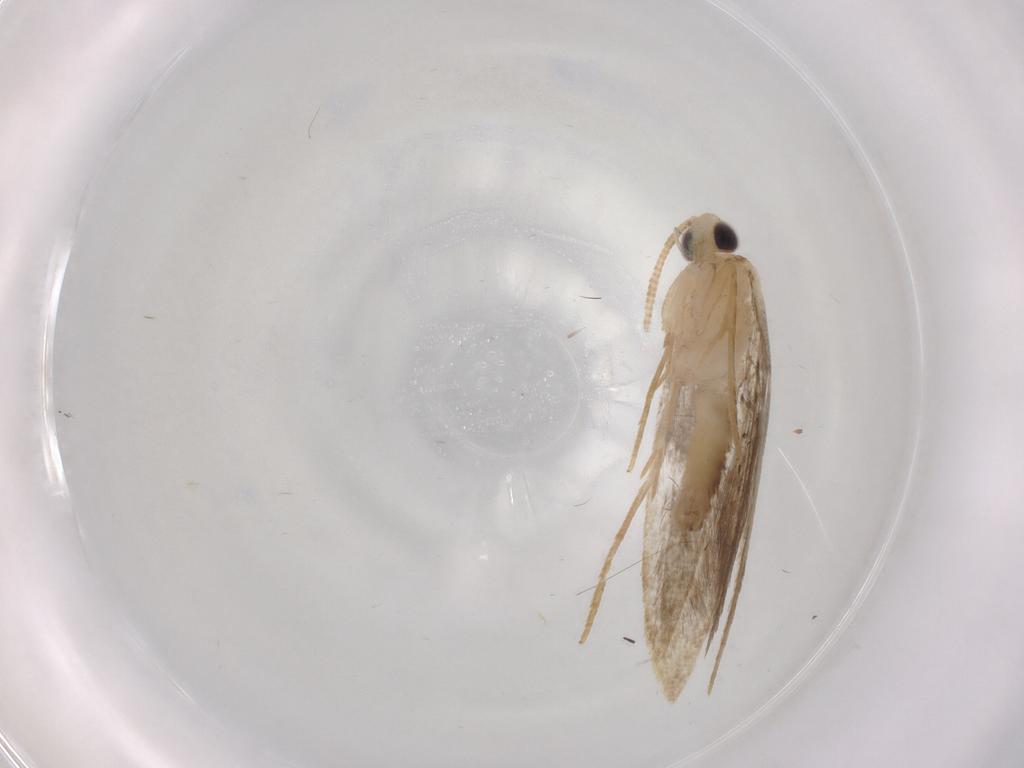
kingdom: Animalia
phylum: Arthropoda
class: Insecta
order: Lepidoptera
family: Tineidae
